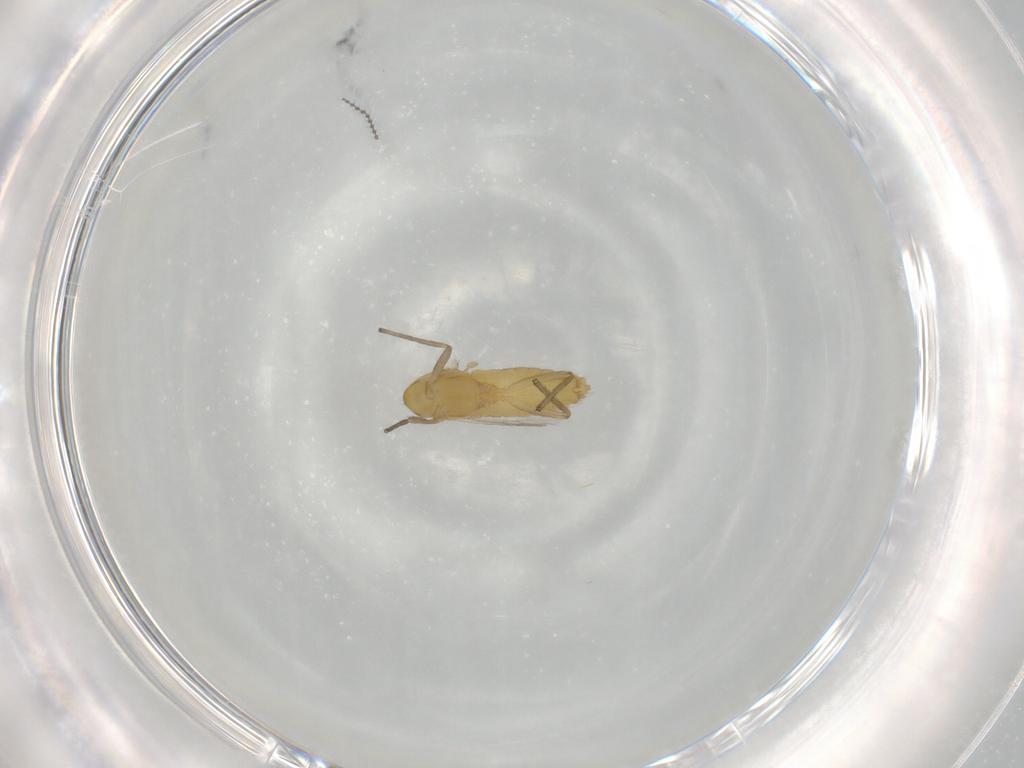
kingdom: Animalia
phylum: Arthropoda
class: Insecta
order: Diptera
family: Chironomidae
